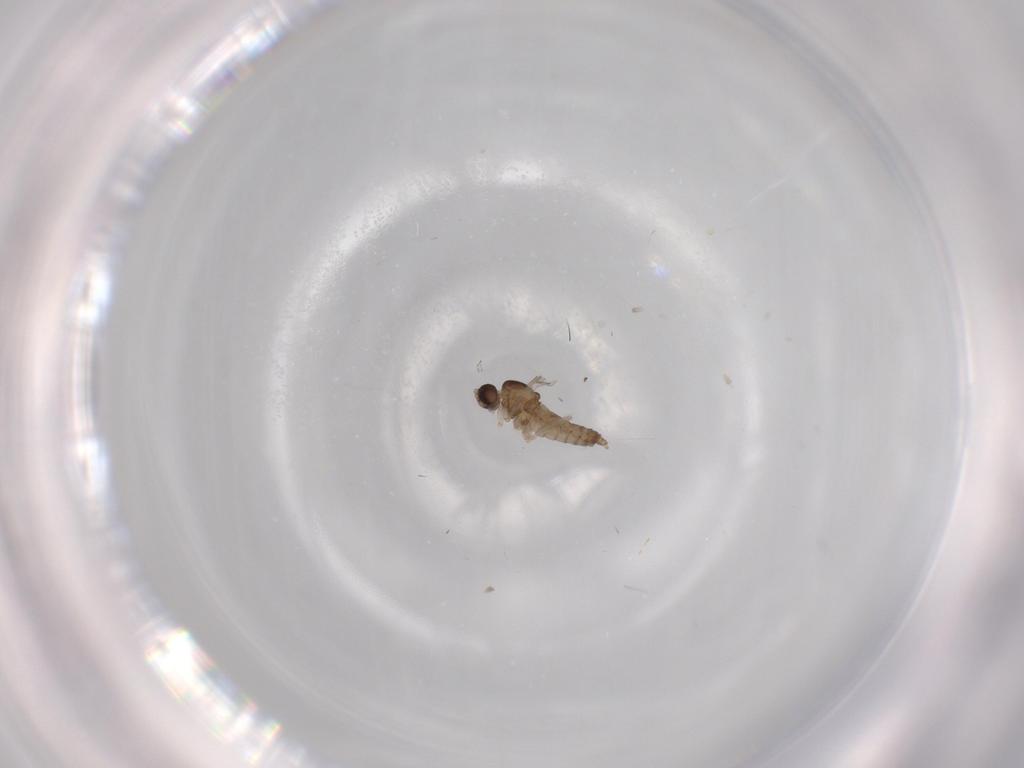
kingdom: Animalia
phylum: Arthropoda
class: Insecta
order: Diptera
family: Cecidomyiidae
